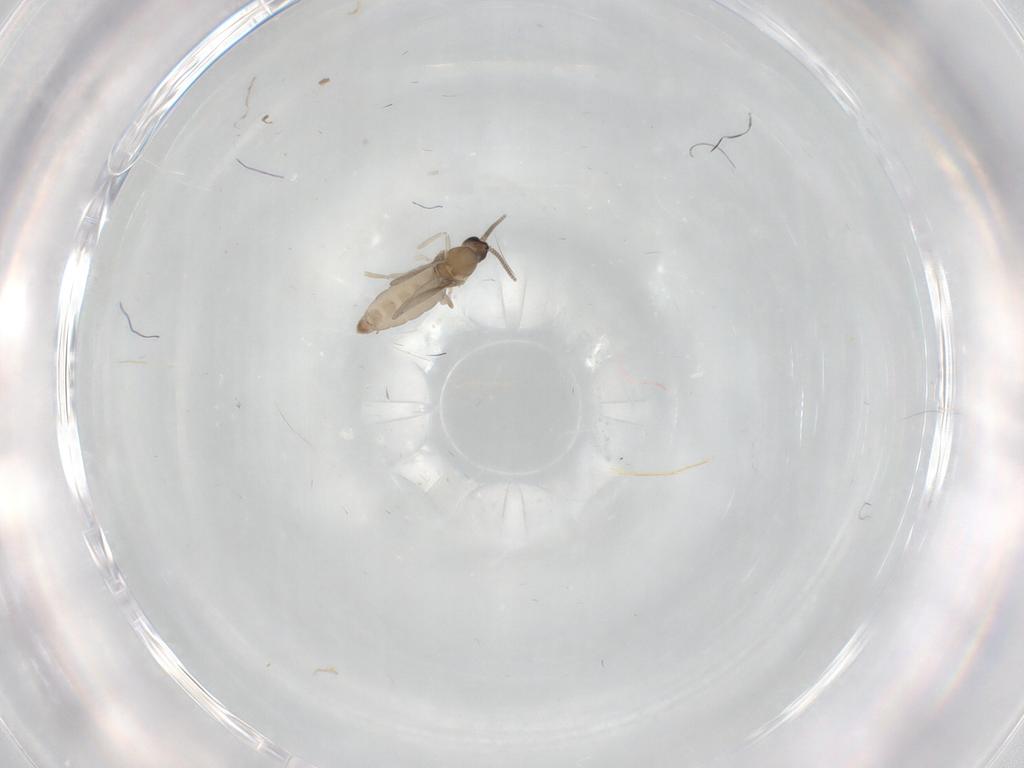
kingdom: Animalia
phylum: Arthropoda
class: Insecta
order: Diptera
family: Cecidomyiidae
